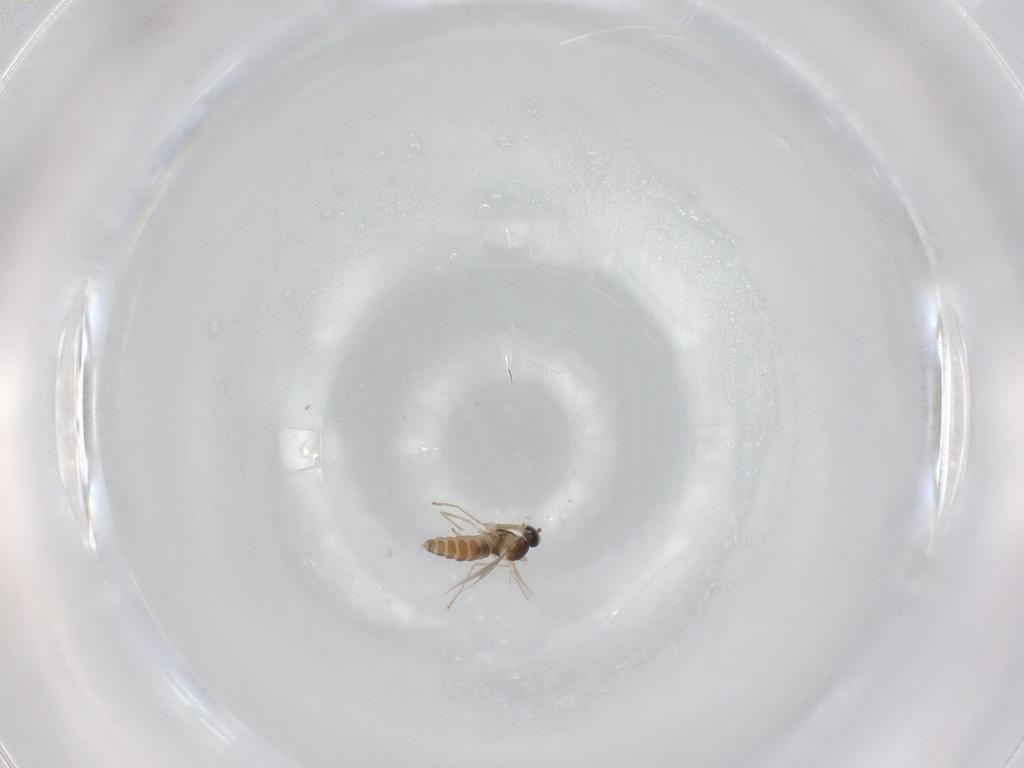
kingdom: Animalia
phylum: Arthropoda
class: Insecta
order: Diptera
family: Cecidomyiidae
